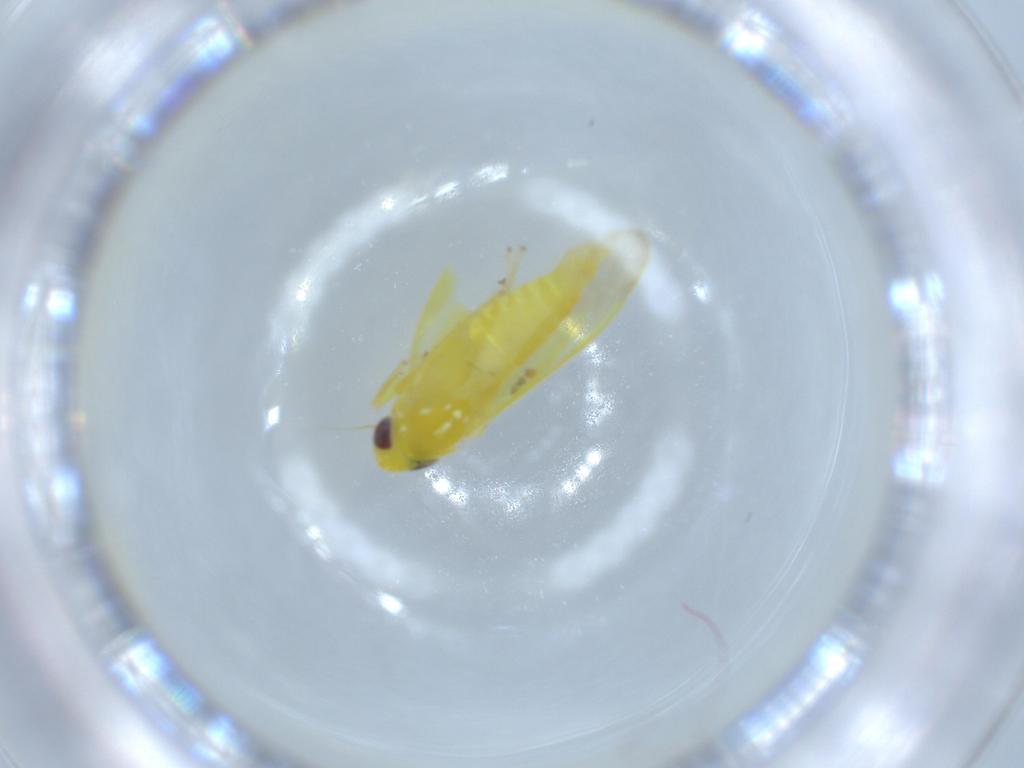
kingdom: Animalia
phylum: Arthropoda
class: Insecta
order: Hemiptera
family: Cicadellidae
